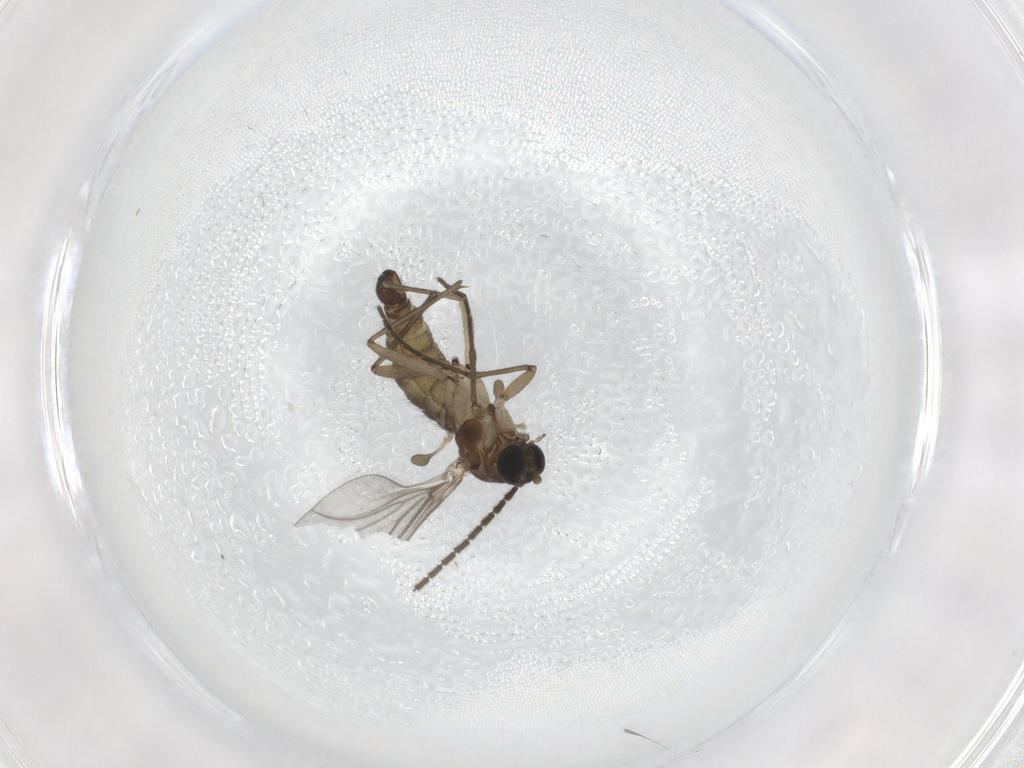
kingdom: Animalia
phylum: Arthropoda
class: Insecta
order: Diptera
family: Sciaridae
